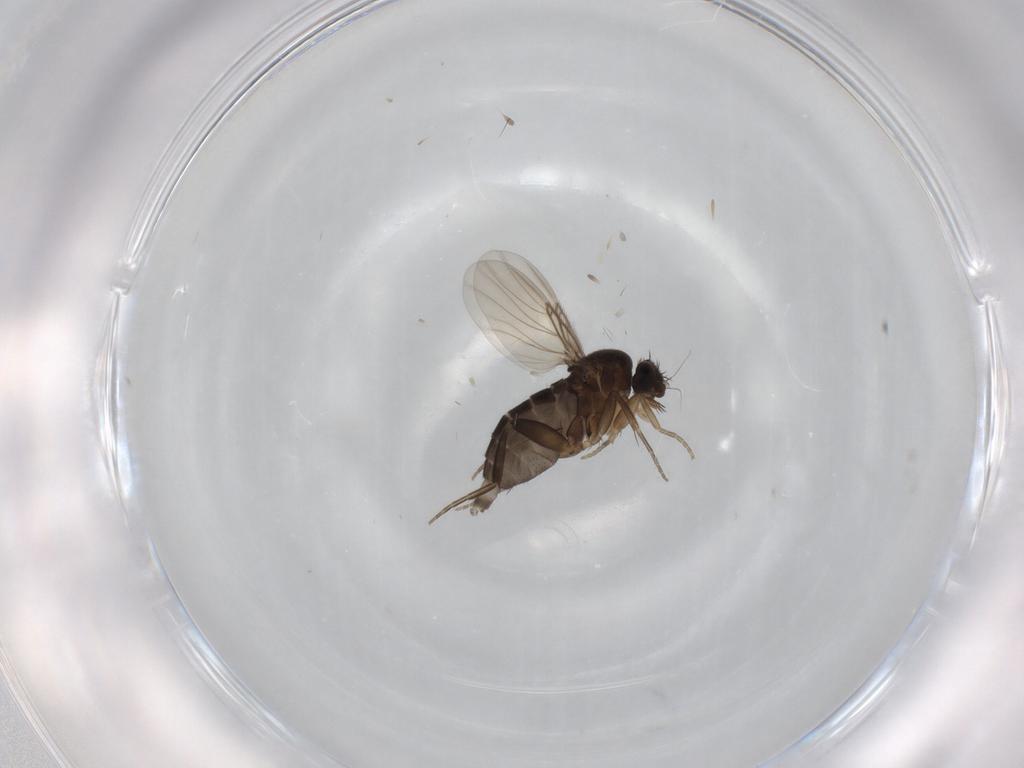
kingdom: Animalia
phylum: Arthropoda
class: Insecta
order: Diptera
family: Phoridae
